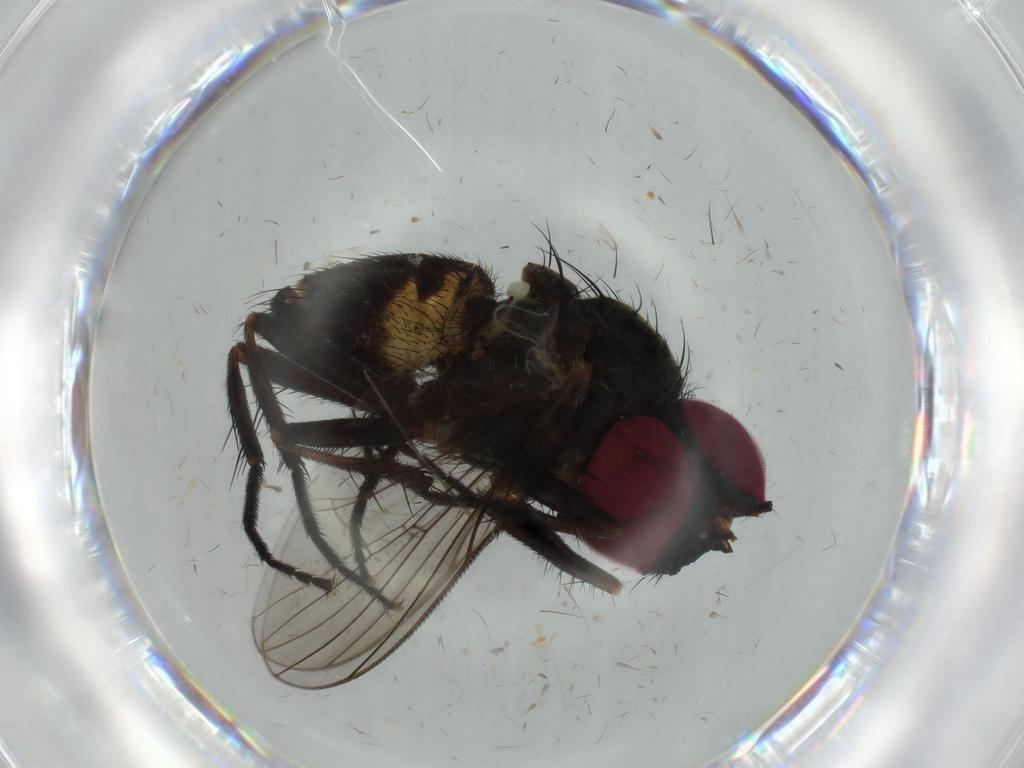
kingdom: Animalia
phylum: Arthropoda
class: Insecta
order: Diptera
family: Fannia
